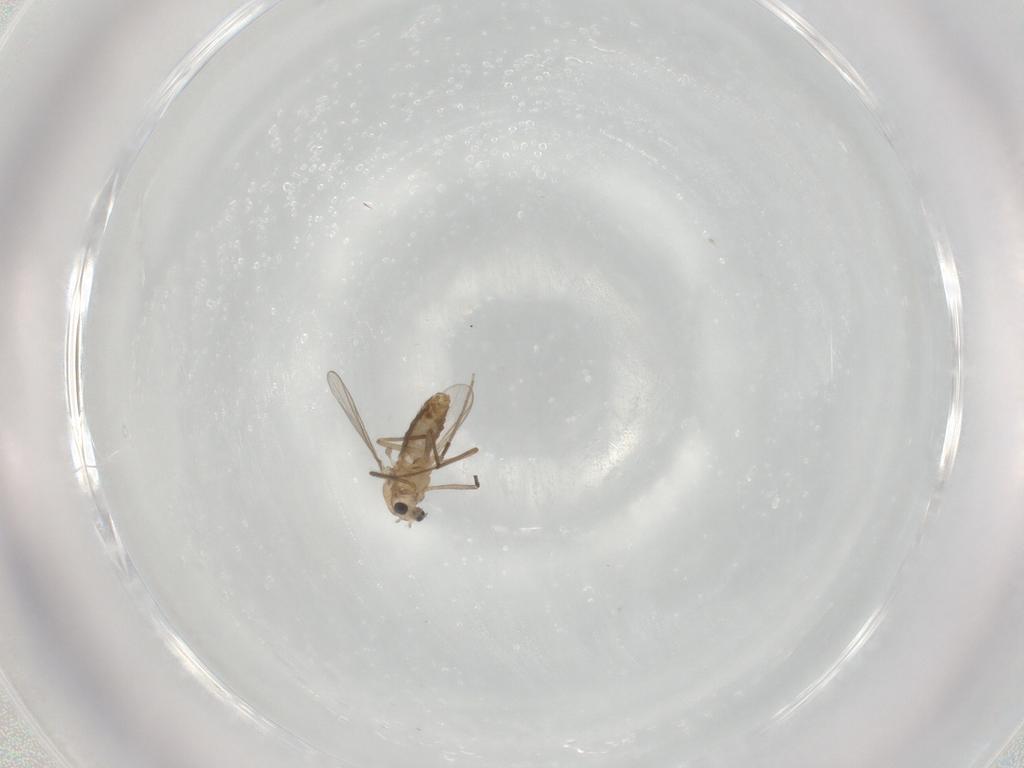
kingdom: Animalia
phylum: Arthropoda
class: Insecta
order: Diptera
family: Chironomidae
